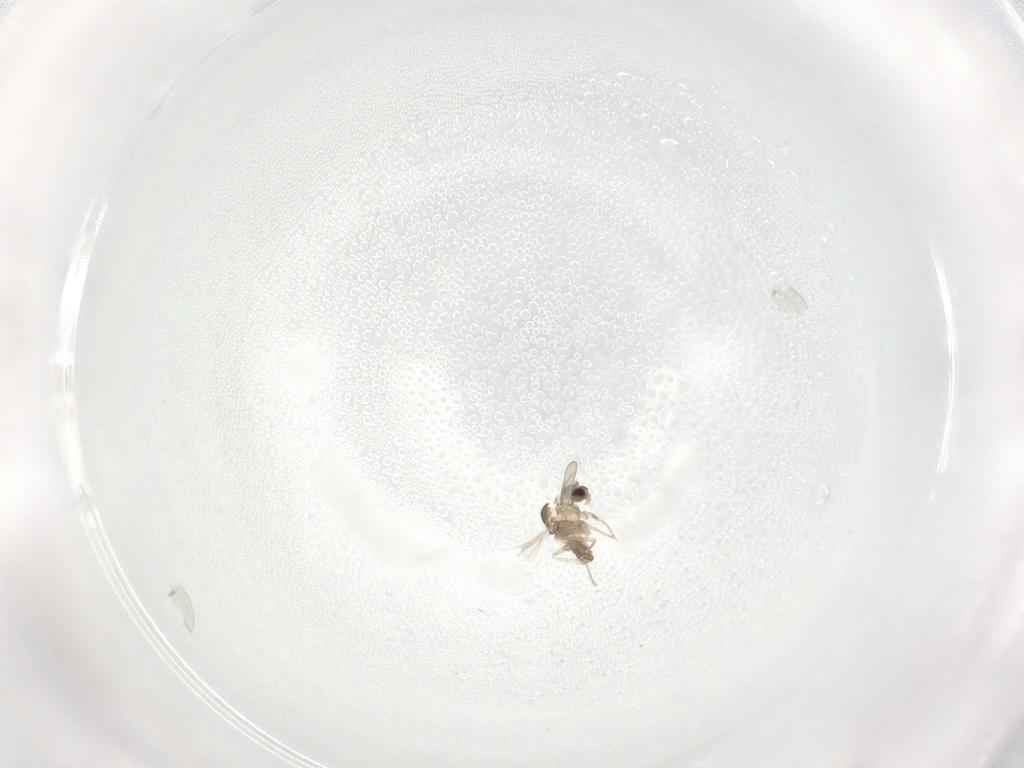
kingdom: Animalia
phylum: Arthropoda
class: Insecta
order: Diptera
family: Cecidomyiidae
